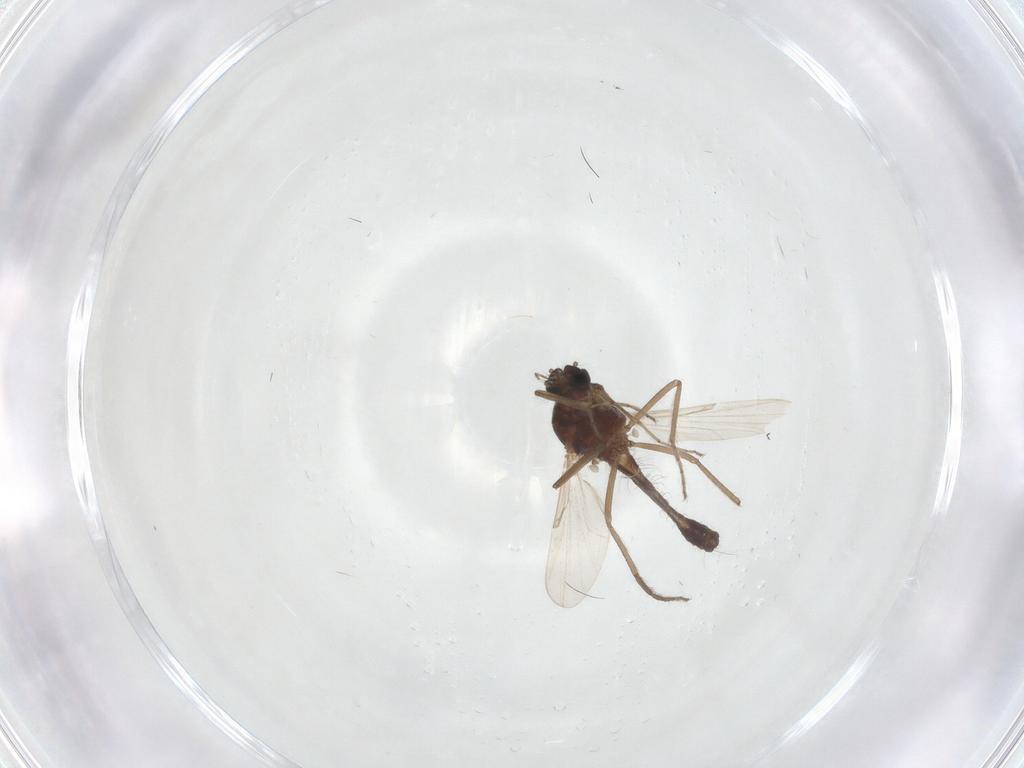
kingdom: Animalia
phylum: Arthropoda
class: Insecta
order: Diptera
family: Ceratopogonidae
